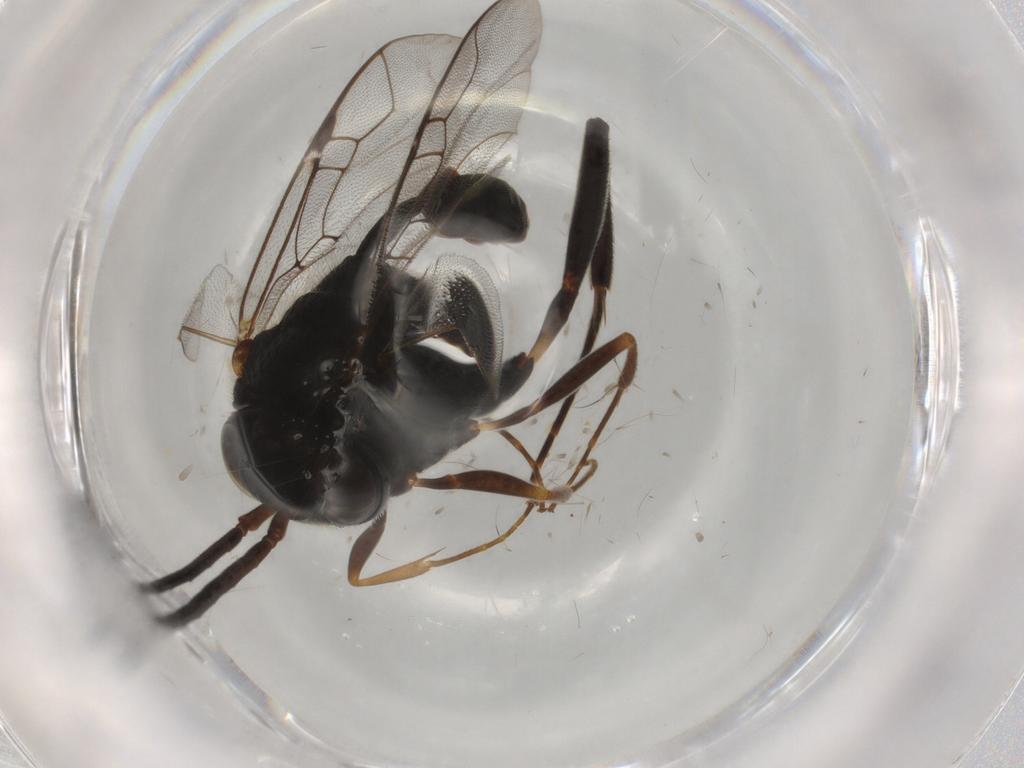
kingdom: Animalia
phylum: Arthropoda
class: Insecta
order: Hymenoptera
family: Evaniidae
